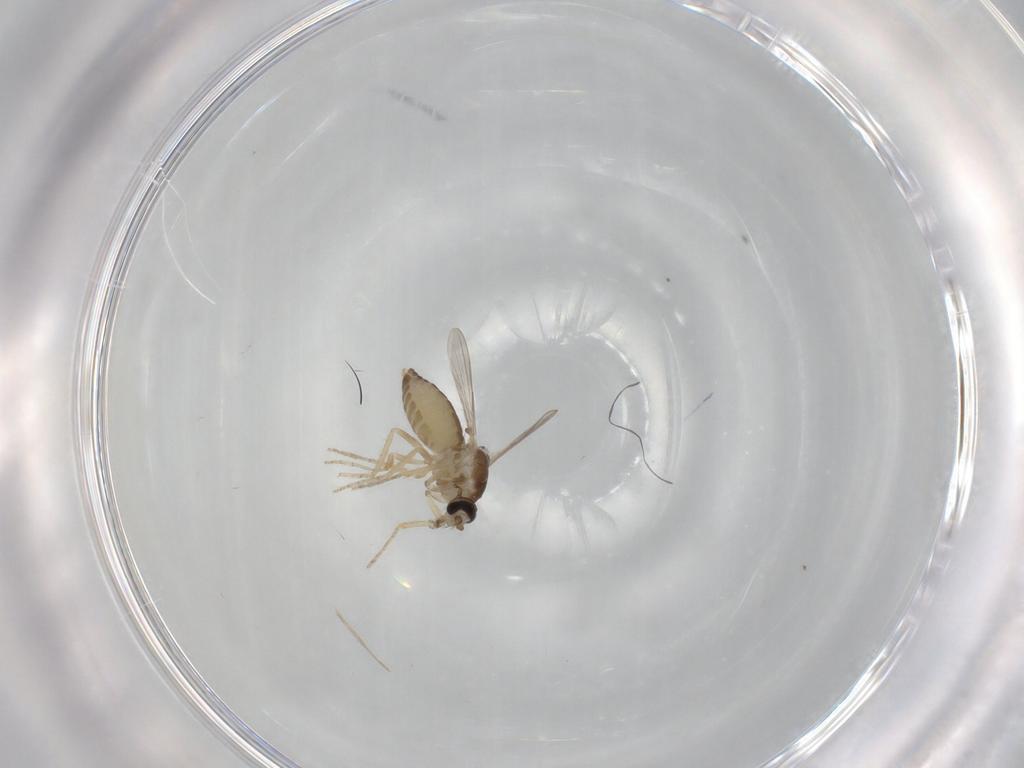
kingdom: Animalia
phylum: Arthropoda
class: Insecta
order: Diptera
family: Ceratopogonidae
